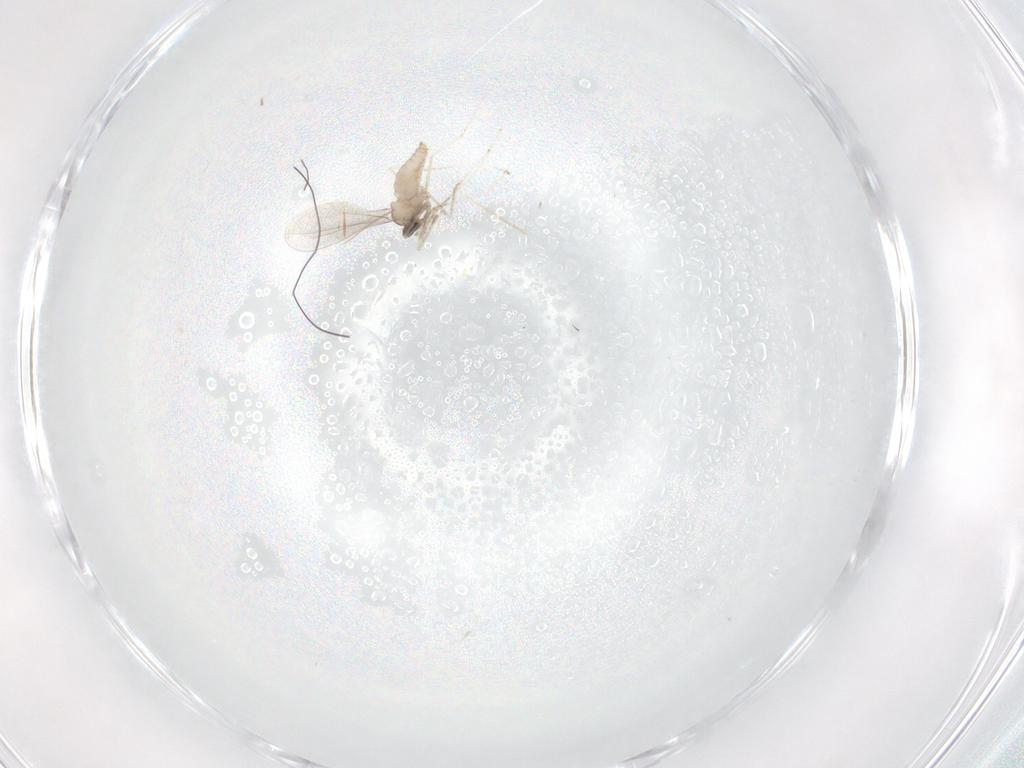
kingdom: Animalia
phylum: Arthropoda
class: Insecta
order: Diptera
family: Cecidomyiidae
